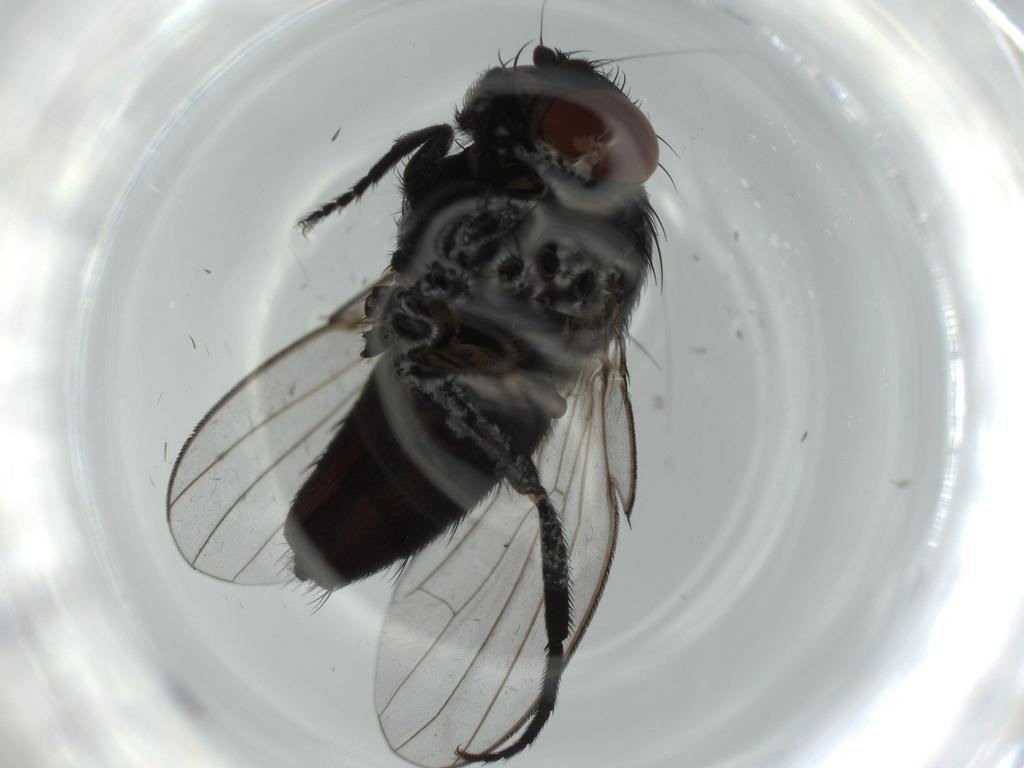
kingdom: Animalia
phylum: Arthropoda
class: Insecta
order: Diptera
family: Milichiidae
